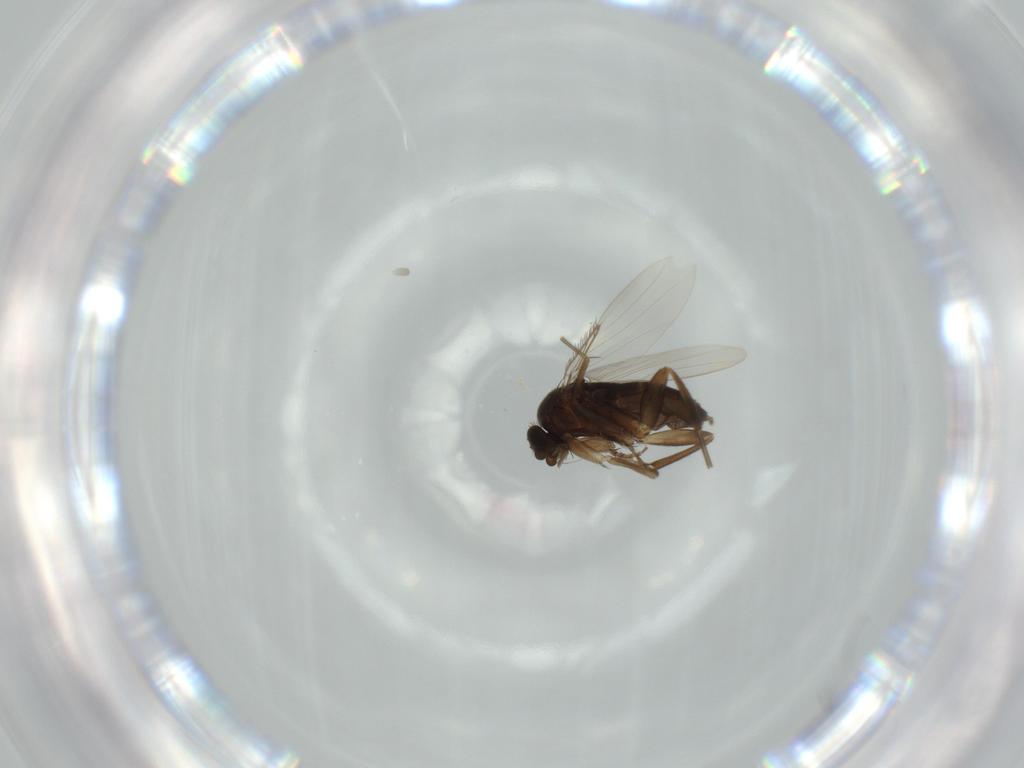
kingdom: Animalia
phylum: Arthropoda
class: Insecta
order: Diptera
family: Phoridae
